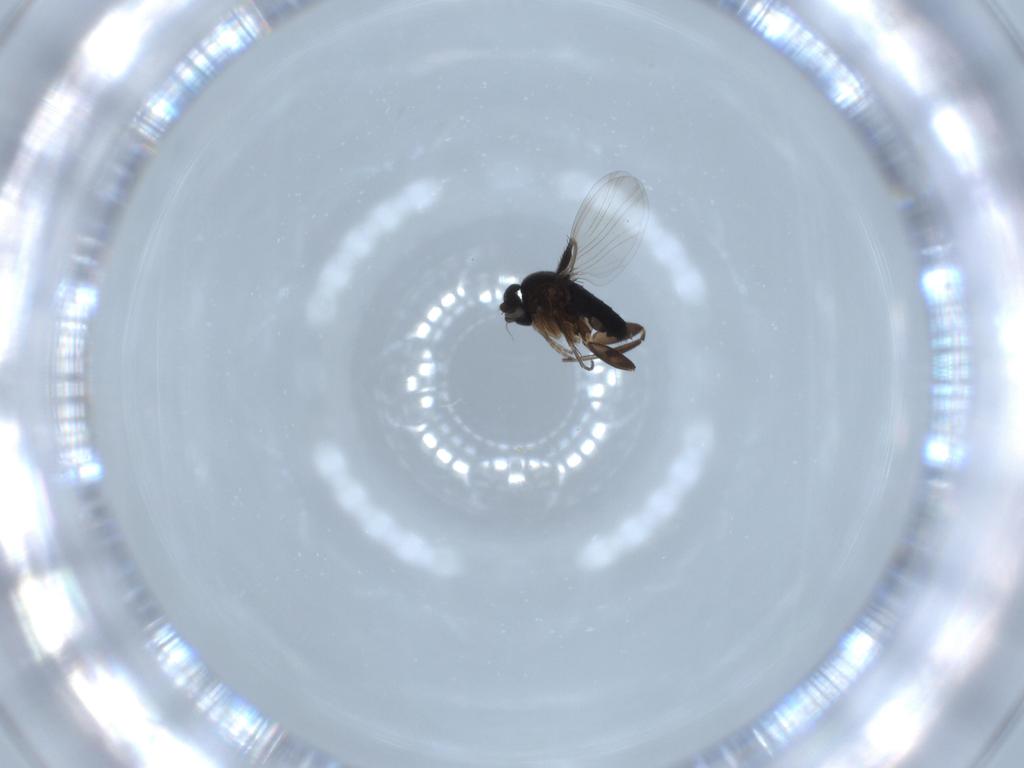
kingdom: Animalia
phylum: Arthropoda
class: Insecta
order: Diptera
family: Phoridae
